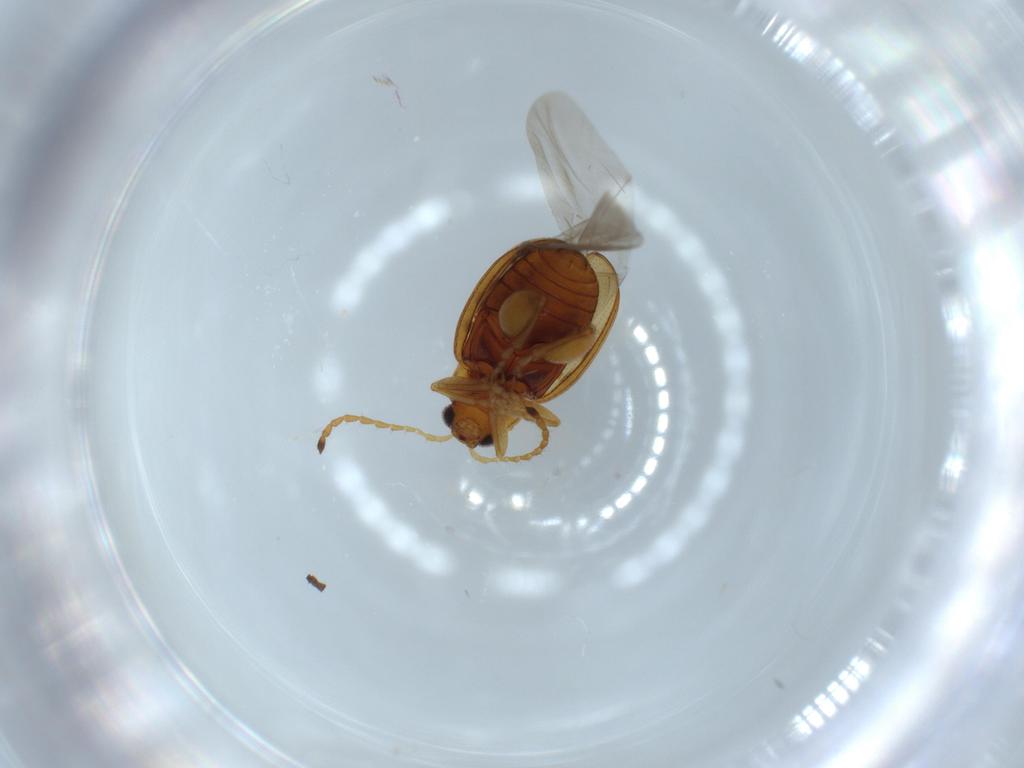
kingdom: Animalia
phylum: Arthropoda
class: Insecta
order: Coleoptera
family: Chrysomelidae
